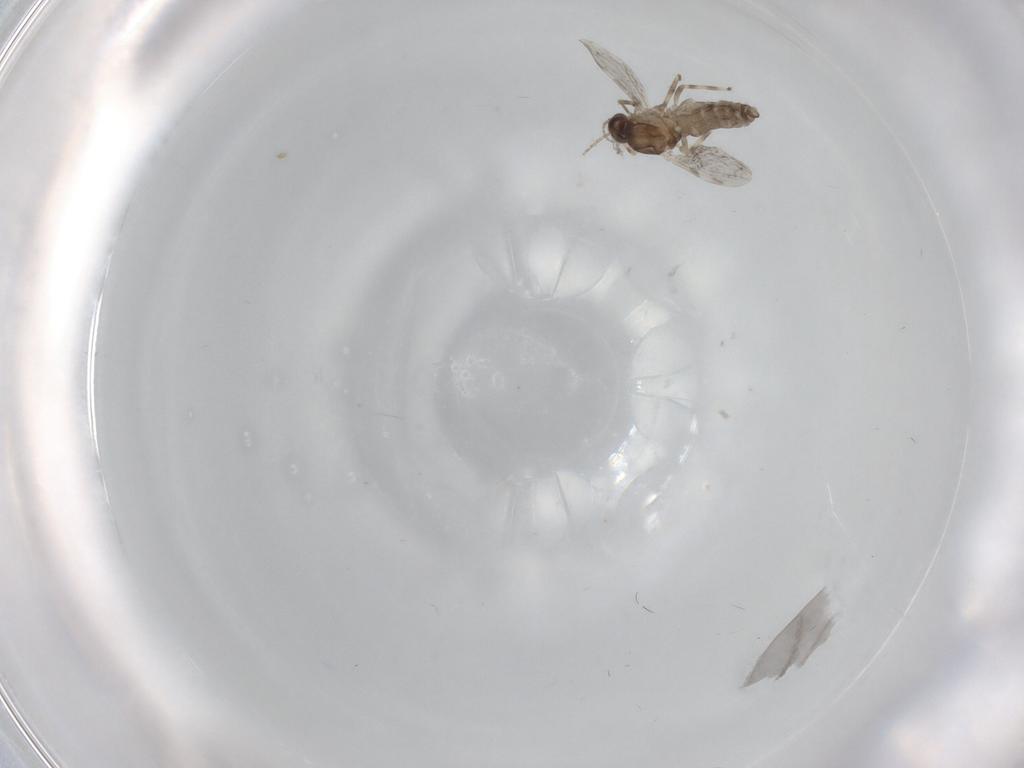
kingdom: Animalia
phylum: Arthropoda
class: Insecta
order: Diptera
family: Ceratopogonidae
